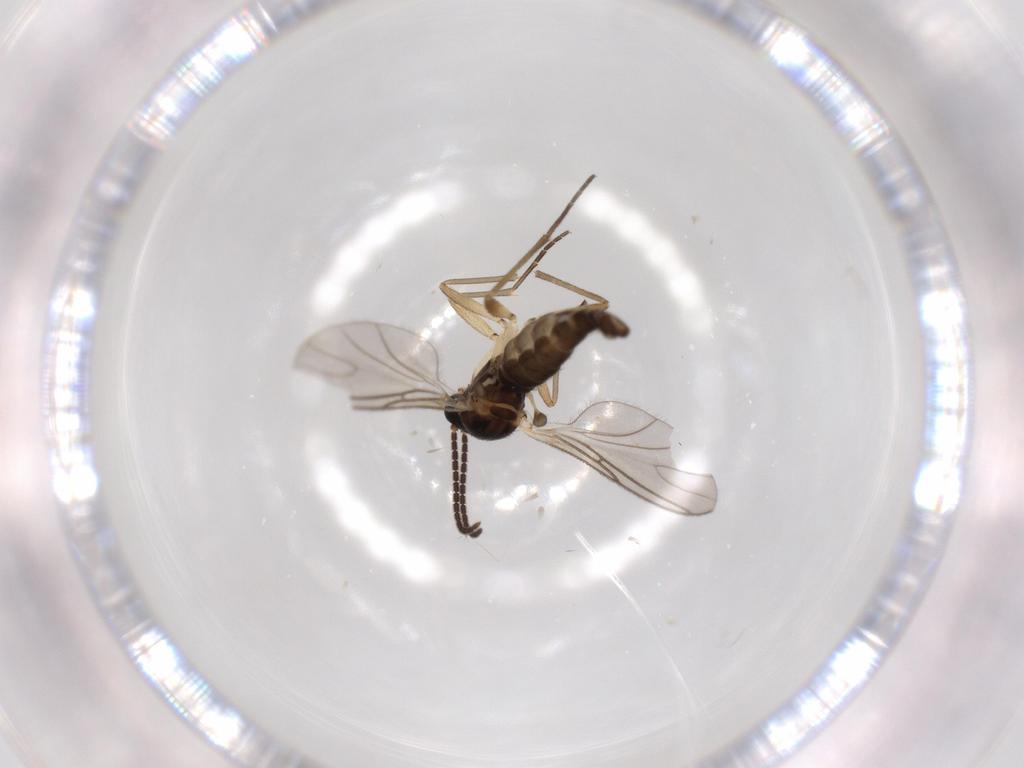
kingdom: Animalia
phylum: Arthropoda
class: Insecta
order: Diptera
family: Sciaridae
